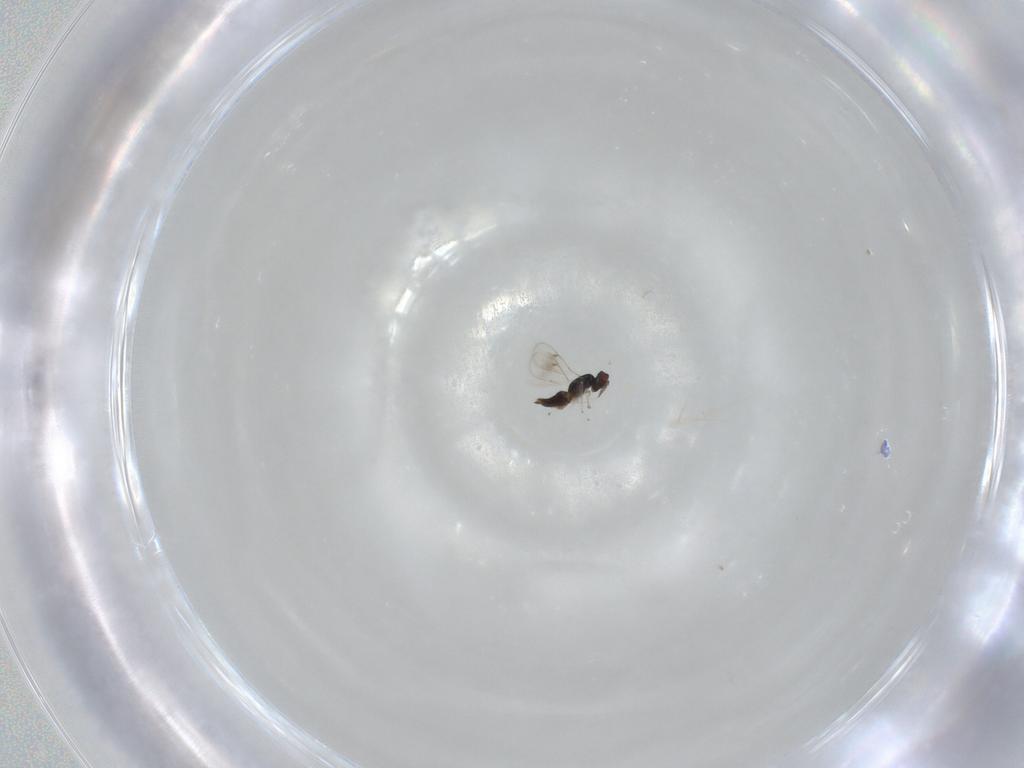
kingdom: Animalia
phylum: Arthropoda
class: Insecta
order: Hymenoptera
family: Eulophidae
